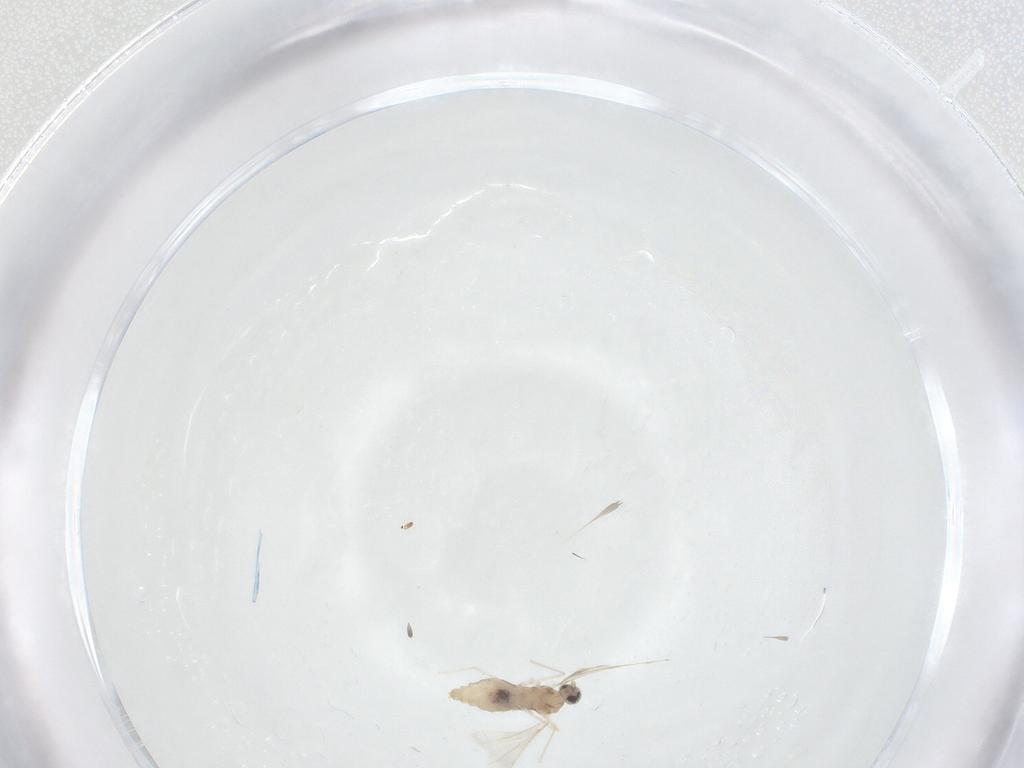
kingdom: Animalia
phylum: Arthropoda
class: Insecta
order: Diptera
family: Cecidomyiidae
